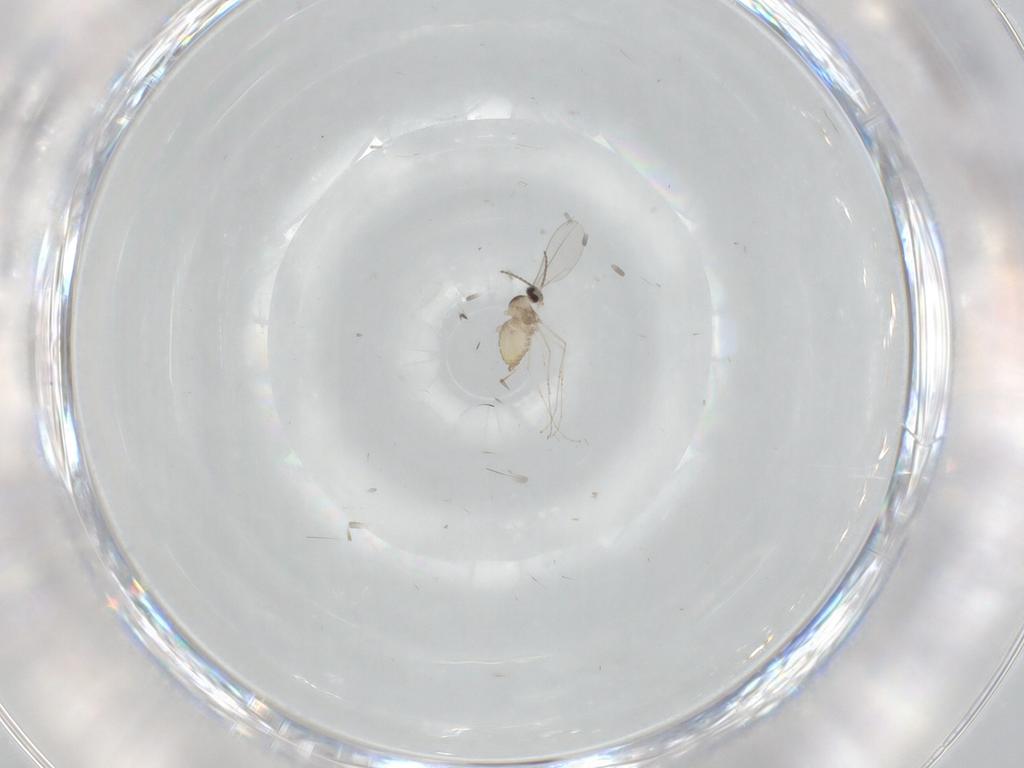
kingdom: Animalia
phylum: Arthropoda
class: Insecta
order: Diptera
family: Cecidomyiidae
